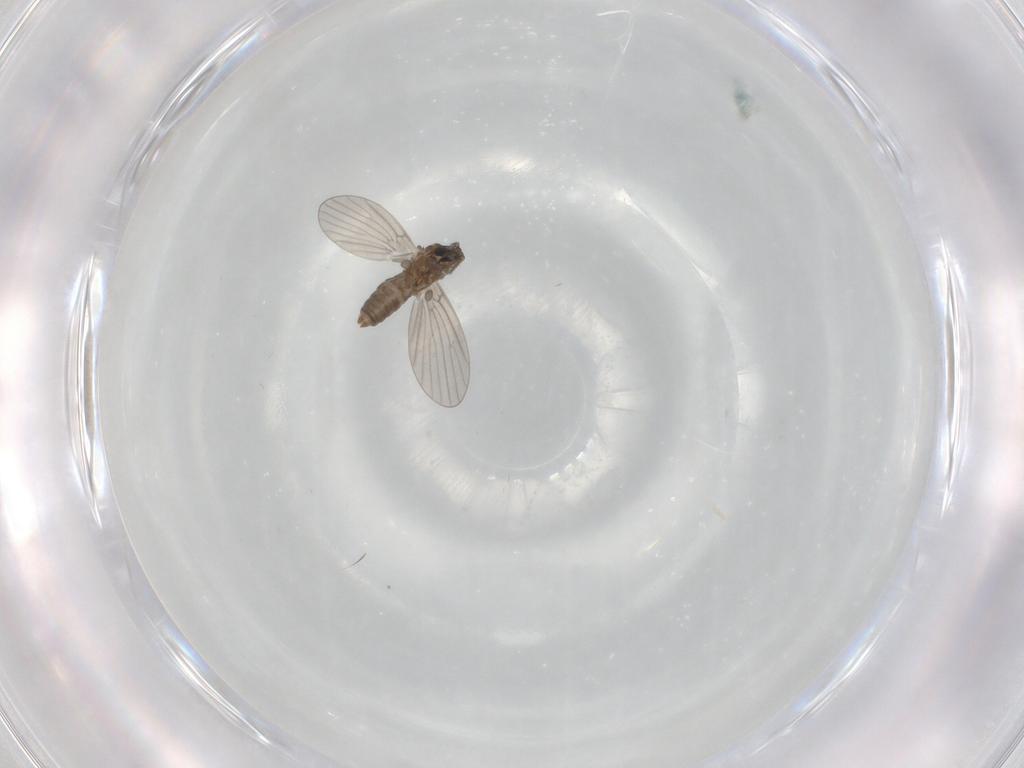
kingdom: Animalia
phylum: Arthropoda
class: Insecta
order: Diptera
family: Psychodidae
